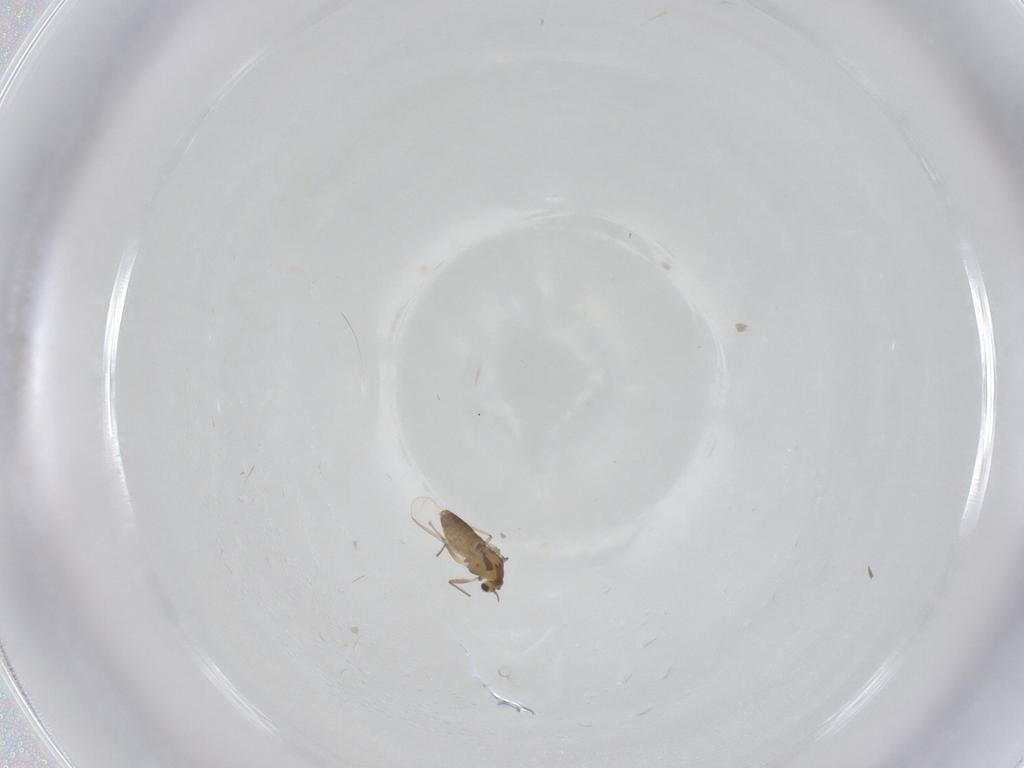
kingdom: Animalia
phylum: Arthropoda
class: Insecta
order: Diptera
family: Chironomidae
